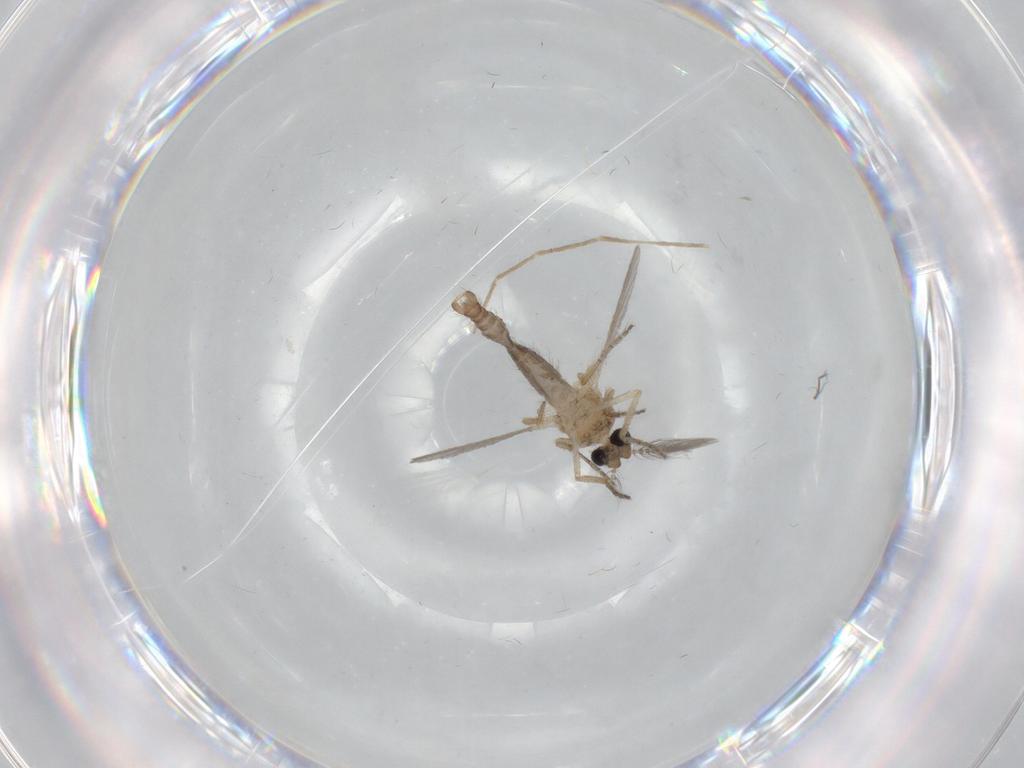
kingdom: Animalia
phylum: Arthropoda
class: Insecta
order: Diptera
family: Ceratopogonidae
